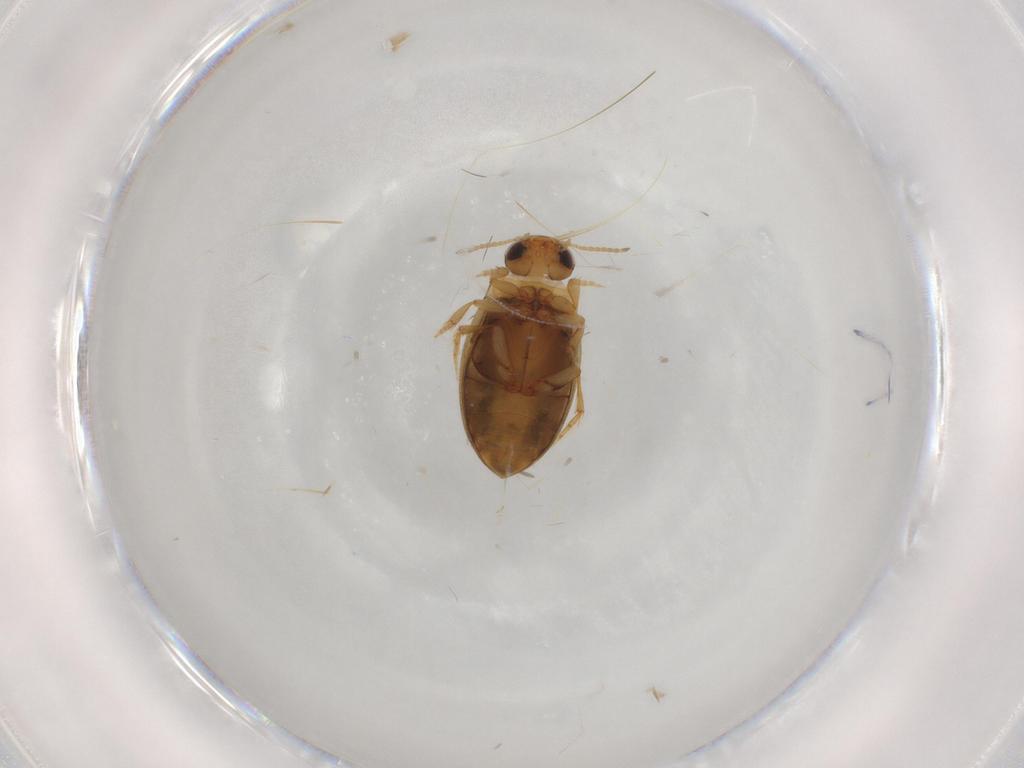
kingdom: Animalia
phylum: Arthropoda
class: Insecta
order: Coleoptera
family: Dytiscidae
